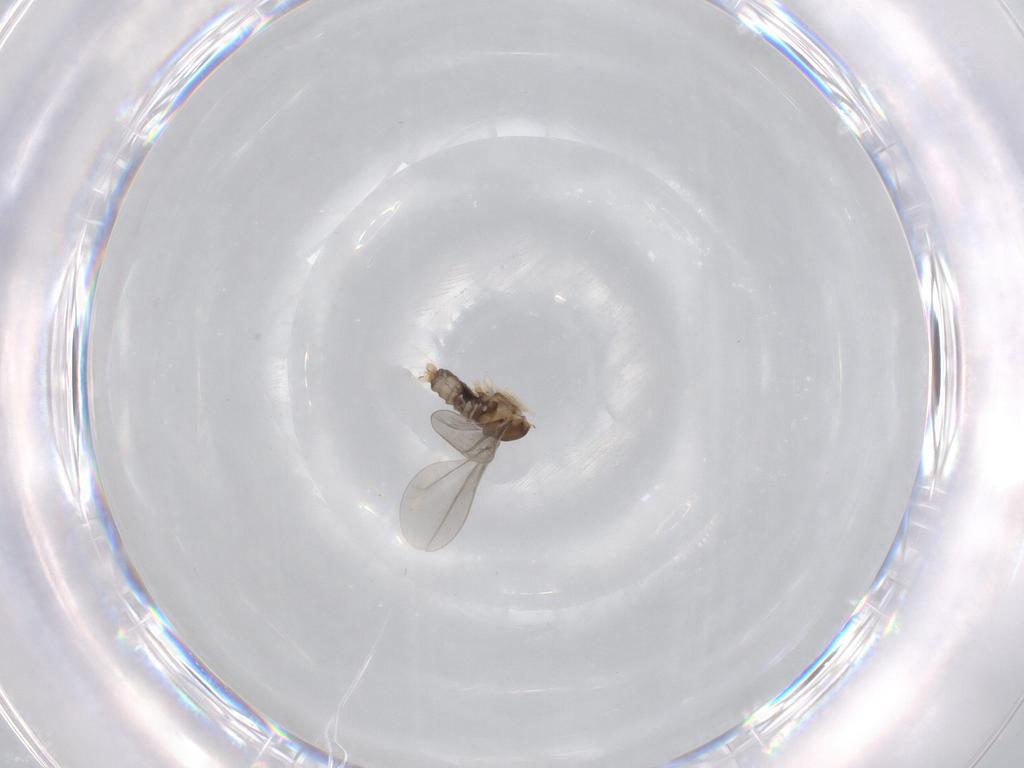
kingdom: Animalia
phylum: Arthropoda
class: Insecta
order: Diptera
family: Cecidomyiidae
